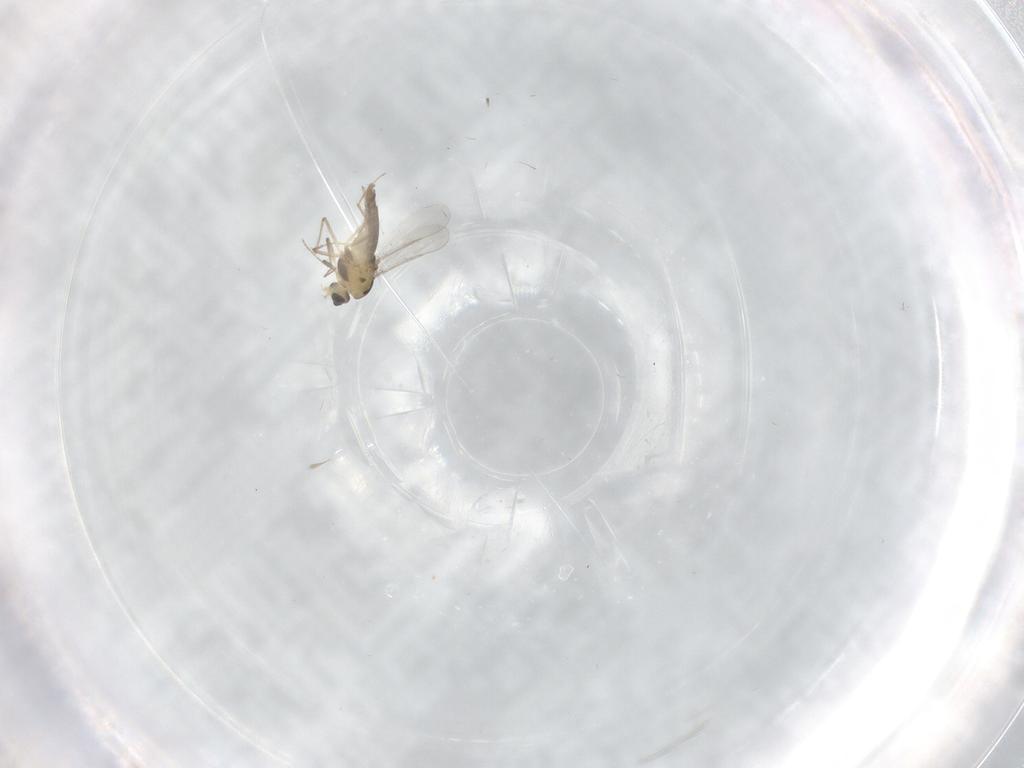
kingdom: Animalia
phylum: Arthropoda
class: Insecta
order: Diptera
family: Chironomidae
